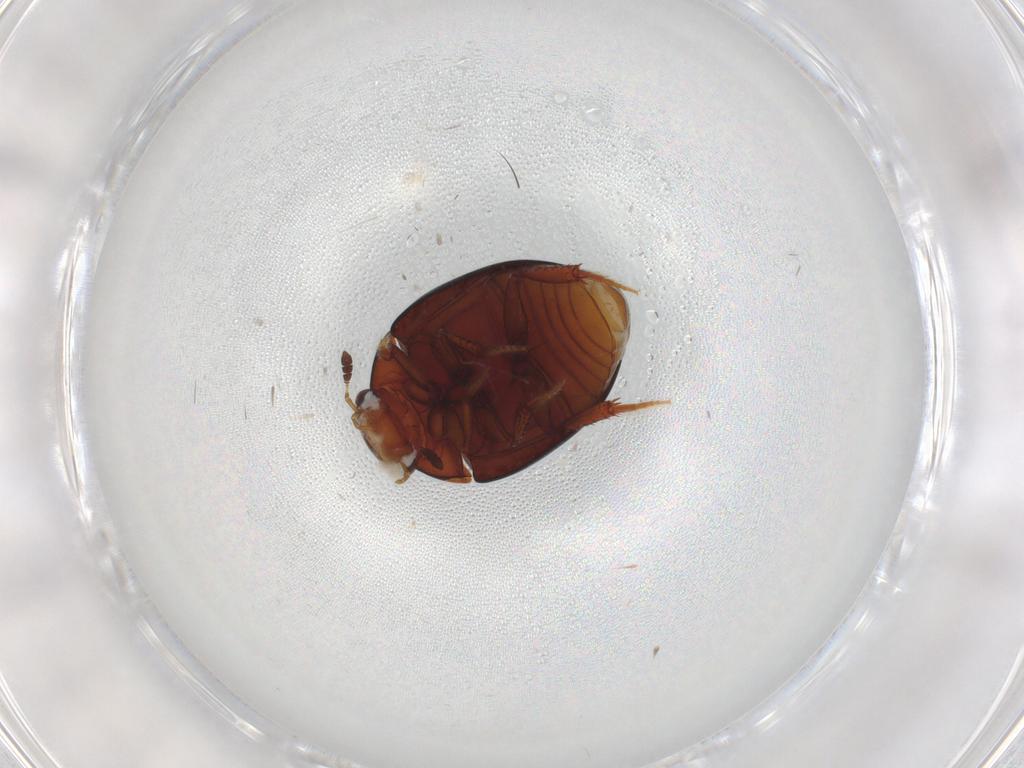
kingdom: Animalia
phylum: Arthropoda
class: Insecta
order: Coleoptera
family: Hydrophilidae
